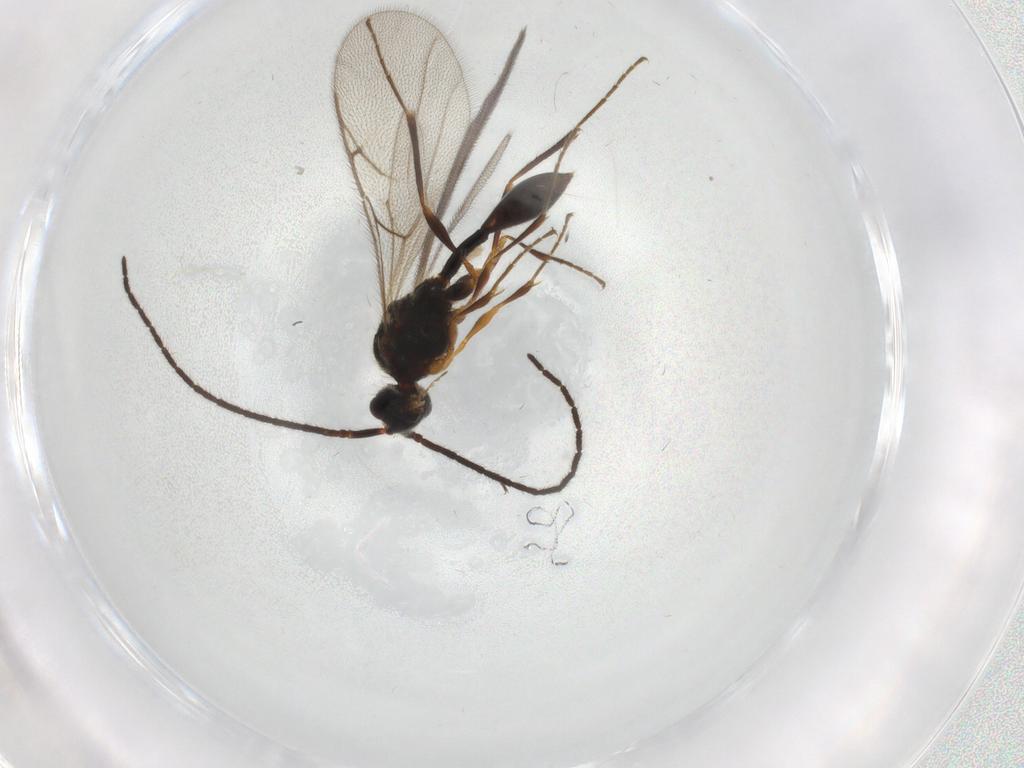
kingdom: Animalia
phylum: Arthropoda
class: Insecta
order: Hymenoptera
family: Diapriidae
